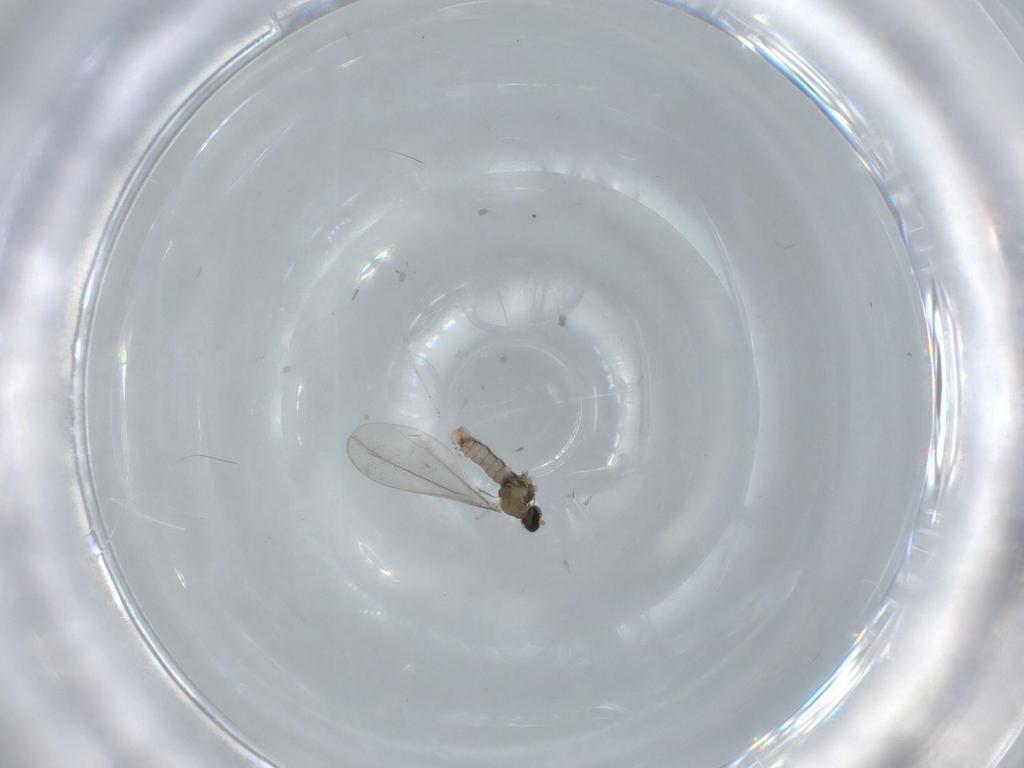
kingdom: Animalia
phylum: Arthropoda
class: Insecta
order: Diptera
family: Cecidomyiidae
